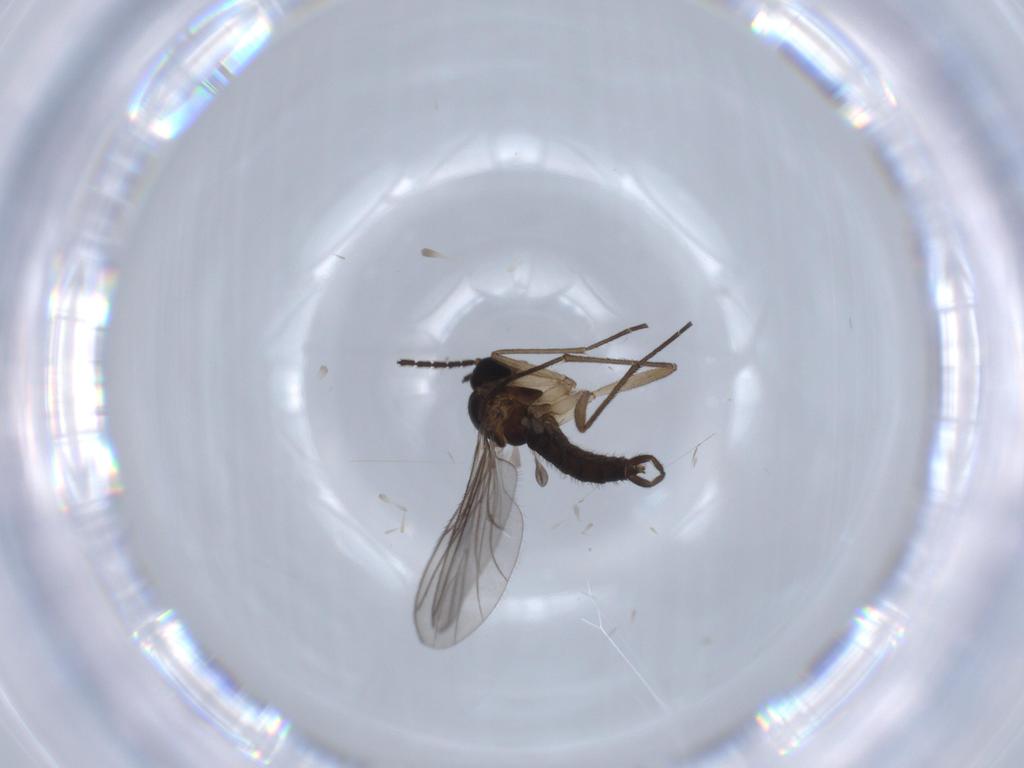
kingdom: Animalia
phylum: Arthropoda
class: Insecta
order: Diptera
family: Sciaridae
